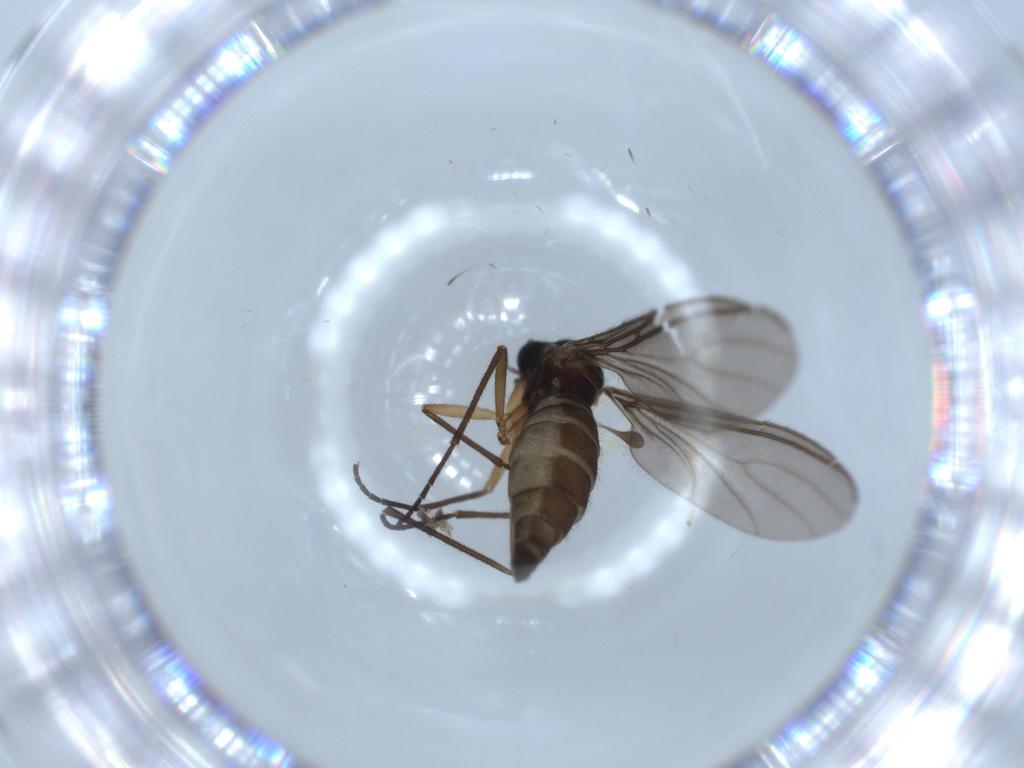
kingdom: Animalia
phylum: Arthropoda
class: Insecta
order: Diptera
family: Sciaridae
